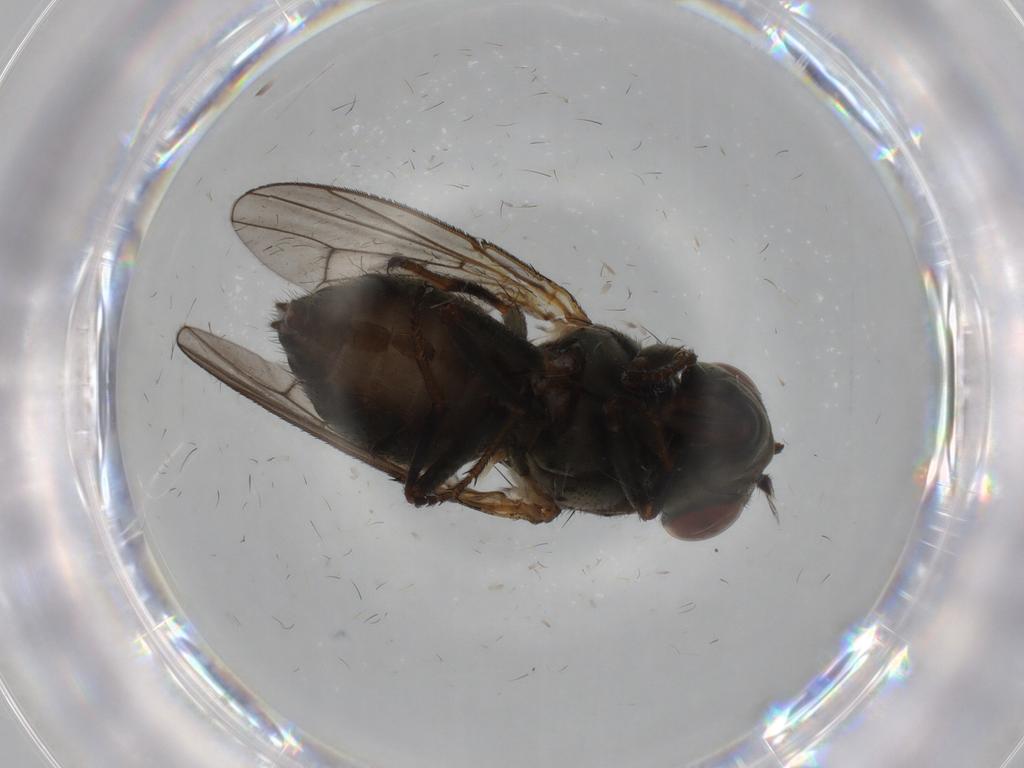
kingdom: Animalia
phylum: Arthropoda
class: Insecta
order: Diptera
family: Ephydridae
